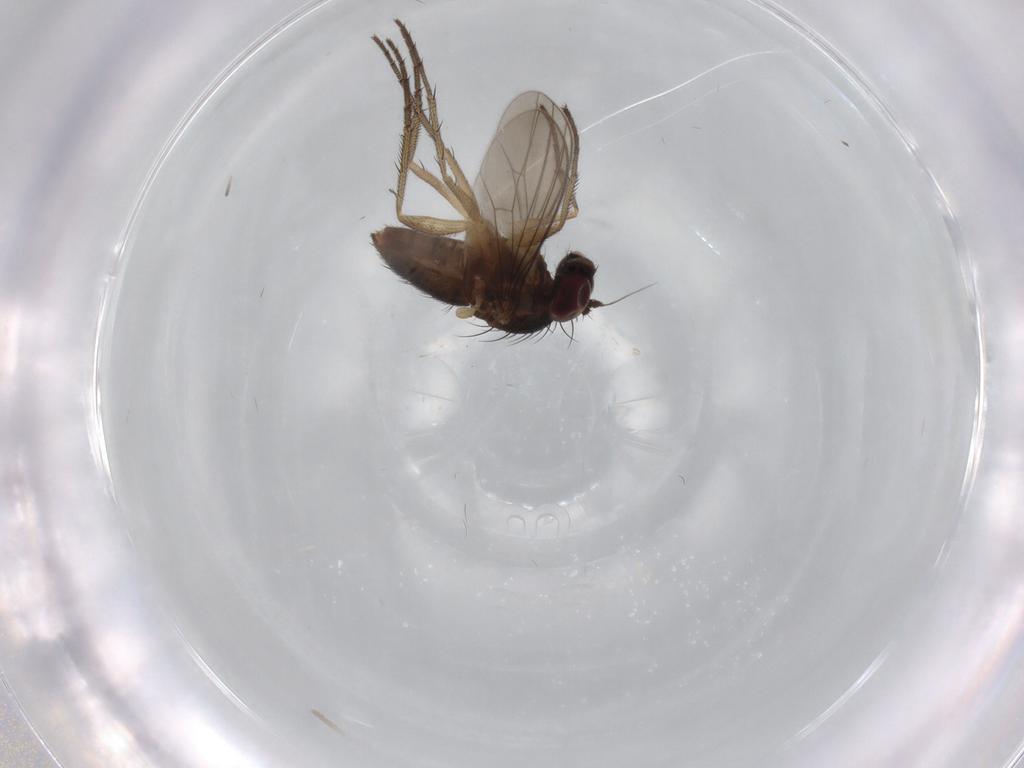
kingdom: Animalia
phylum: Arthropoda
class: Insecta
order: Diptera
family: Dolichopodidae
